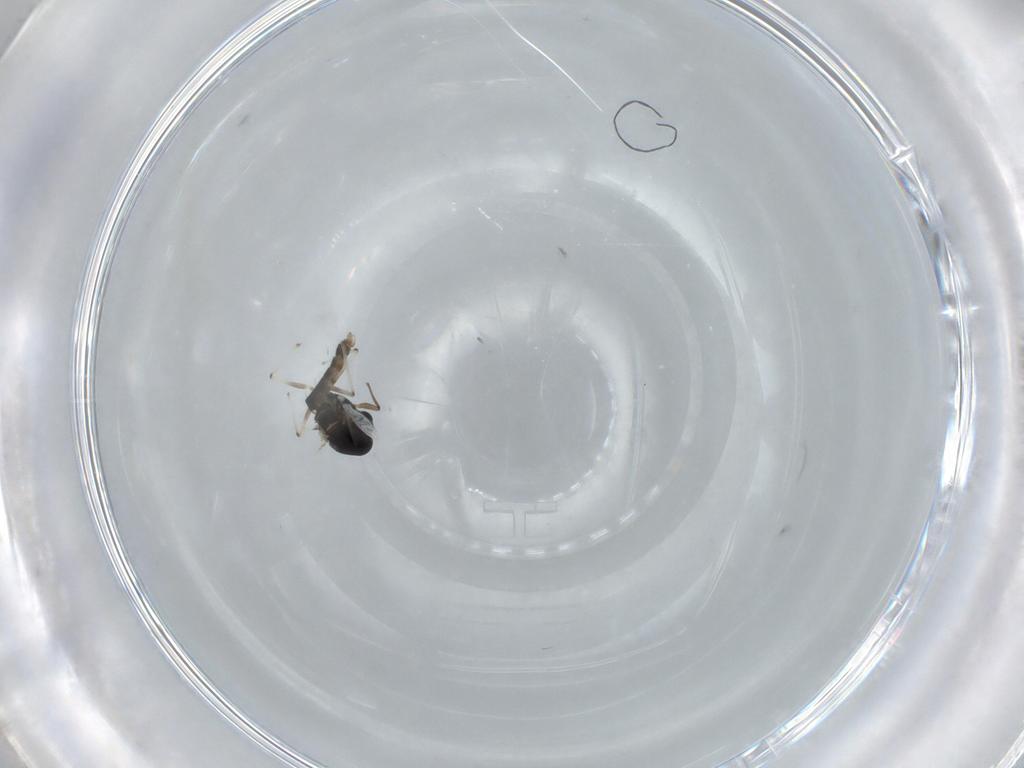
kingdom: Animalia
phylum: Arthropoda
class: Insecta
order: Diptera
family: Chironomidae
